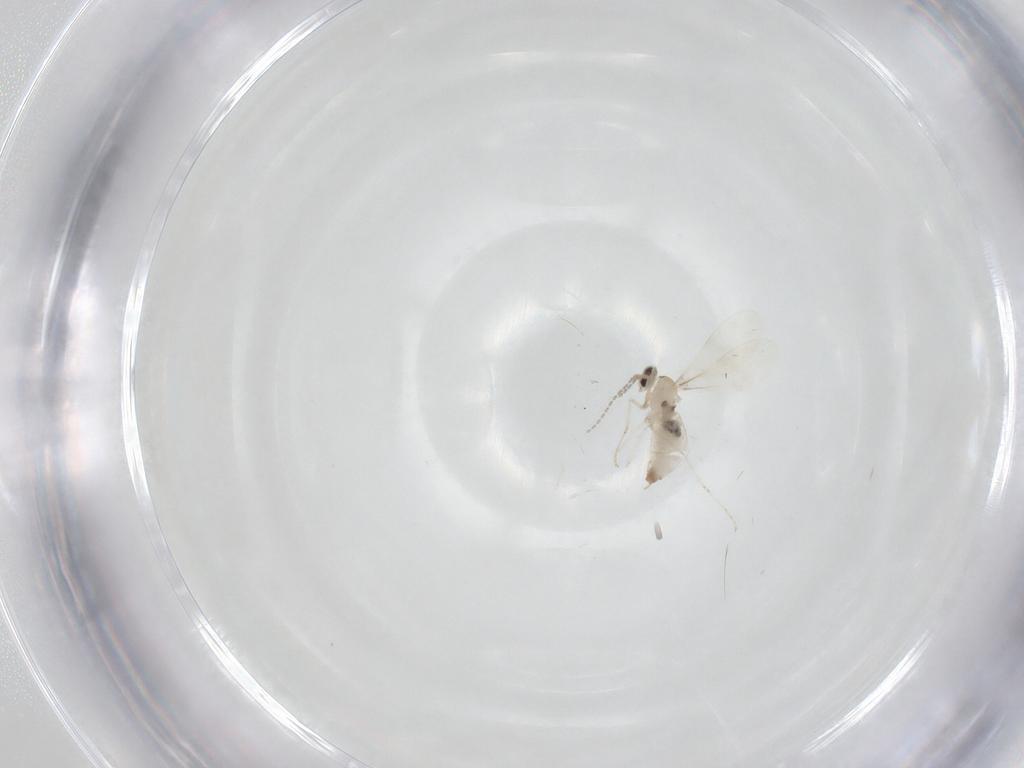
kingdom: Animalia
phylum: Arthropoda
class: Insecta
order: Diptera
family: Cecidomyiidae
